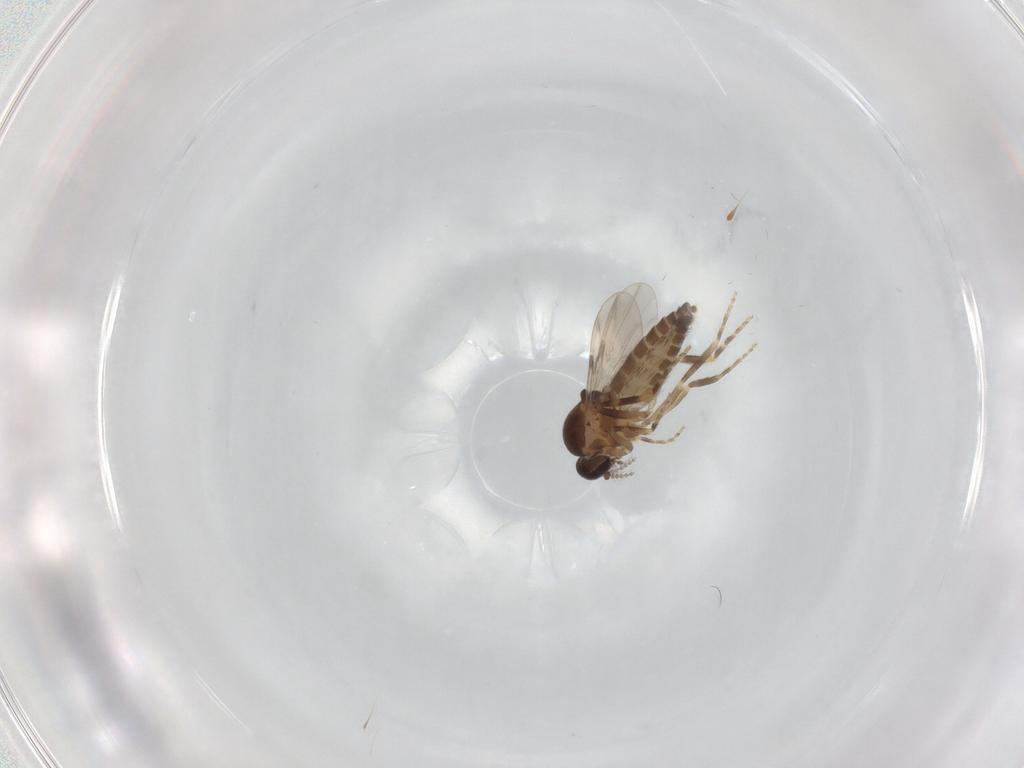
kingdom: Animalia
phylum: Arthropoda
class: Insecta
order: Diptera
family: Ceratopogonidae
